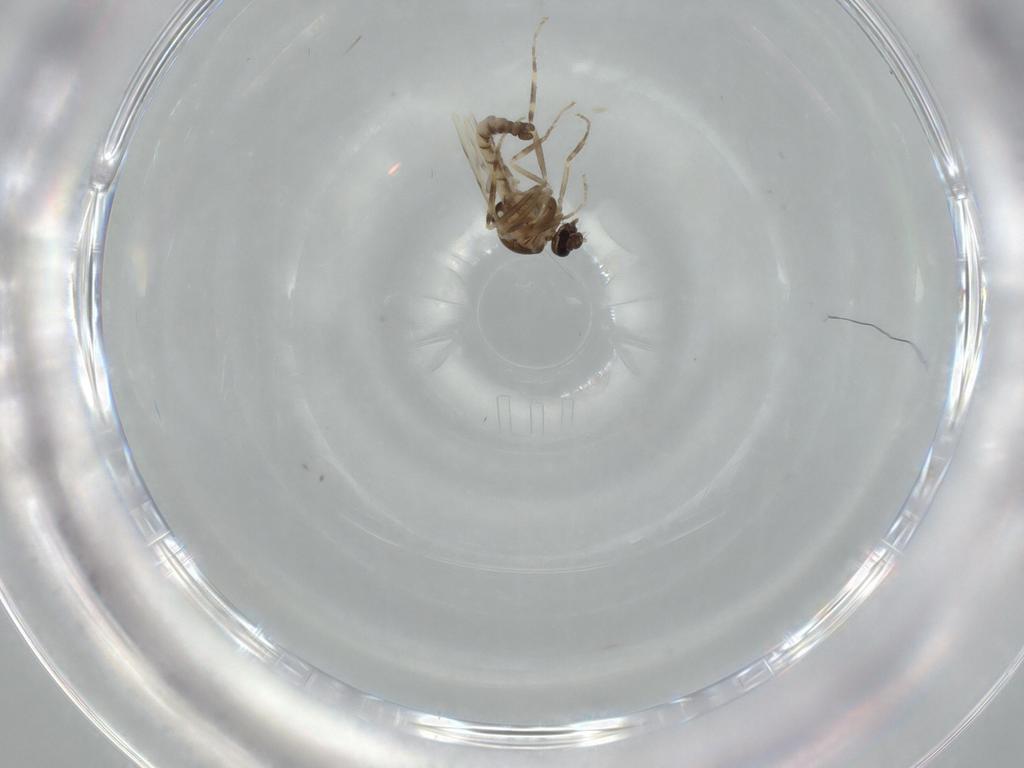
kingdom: Animalia
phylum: Arthropoda
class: Insecta
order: Diptera
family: Ceratopogonidae
